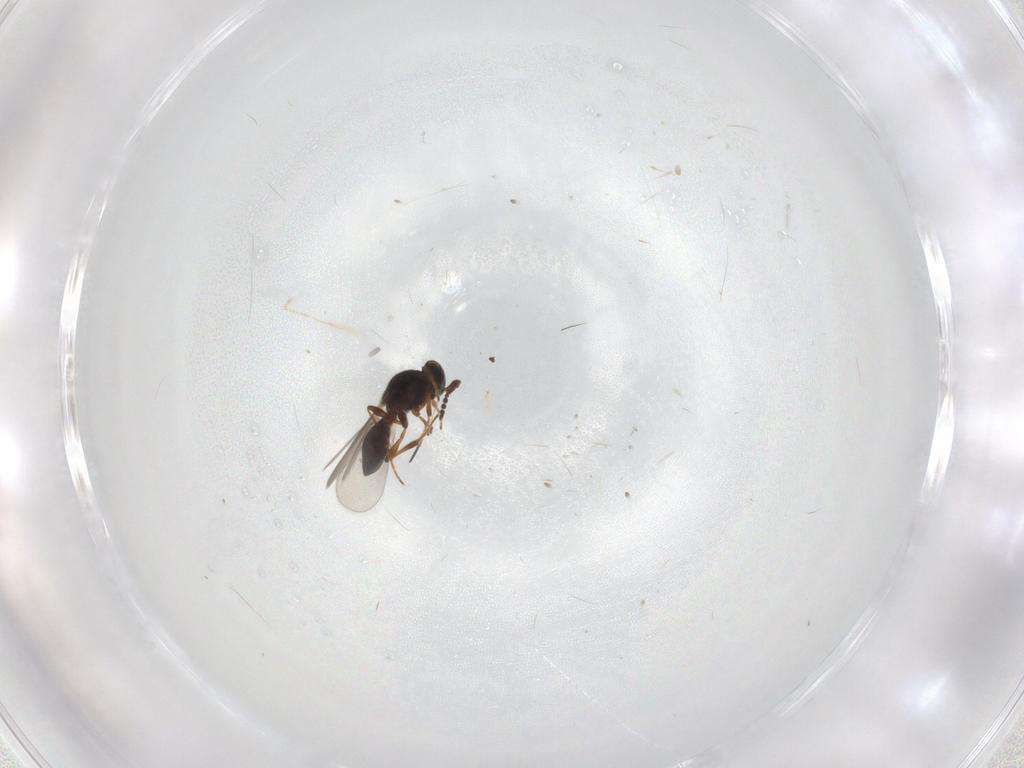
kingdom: Animalia
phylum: Arthropoda
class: Insecta
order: Hymenoptera
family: Platygastridae
